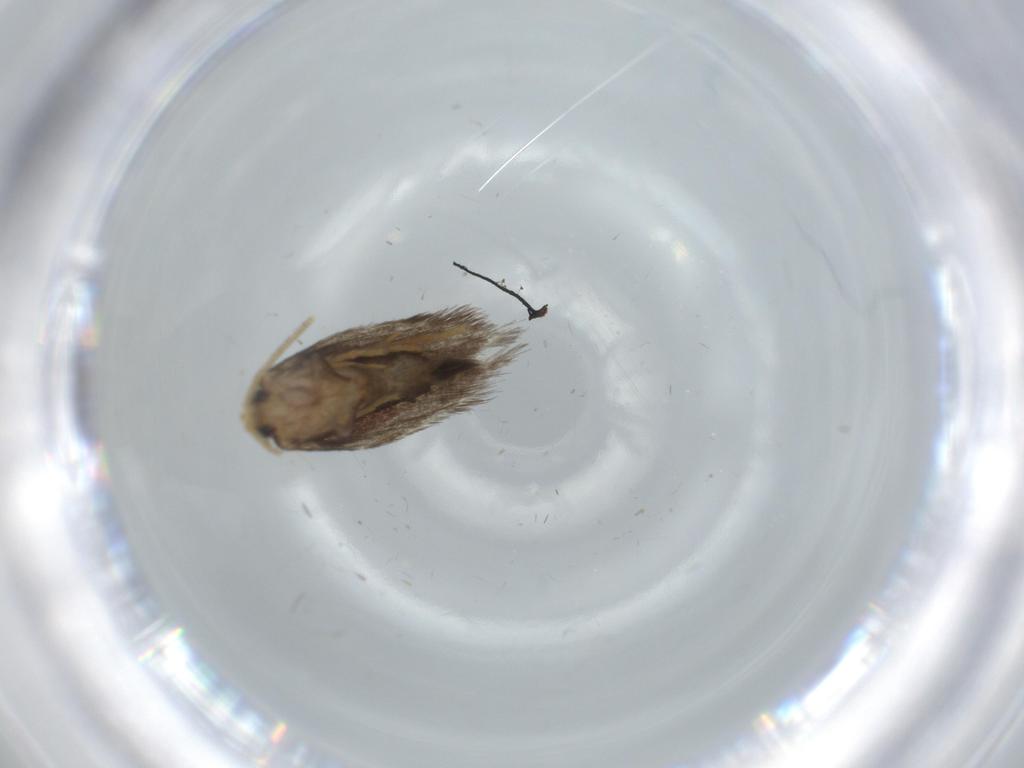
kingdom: Animalia
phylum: Arthropoda
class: Insecta
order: Lepidoptera
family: Nepticulidae
